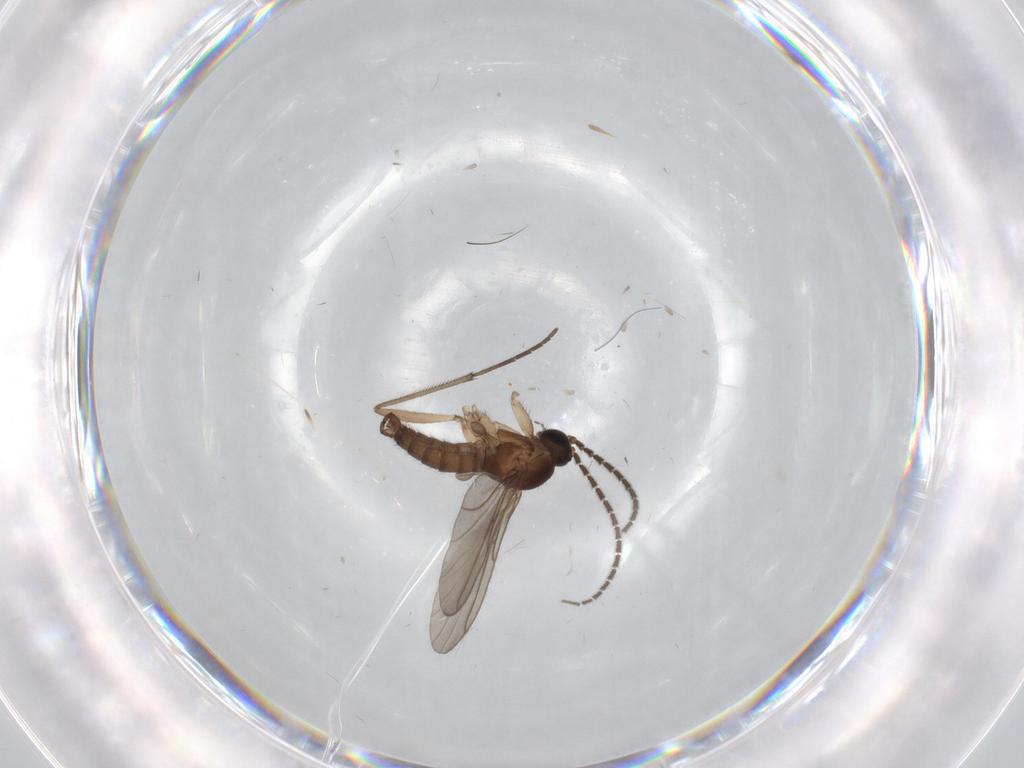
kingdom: Animalia
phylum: Arthropoda
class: Insecta
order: Diptera
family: Sciaridae
